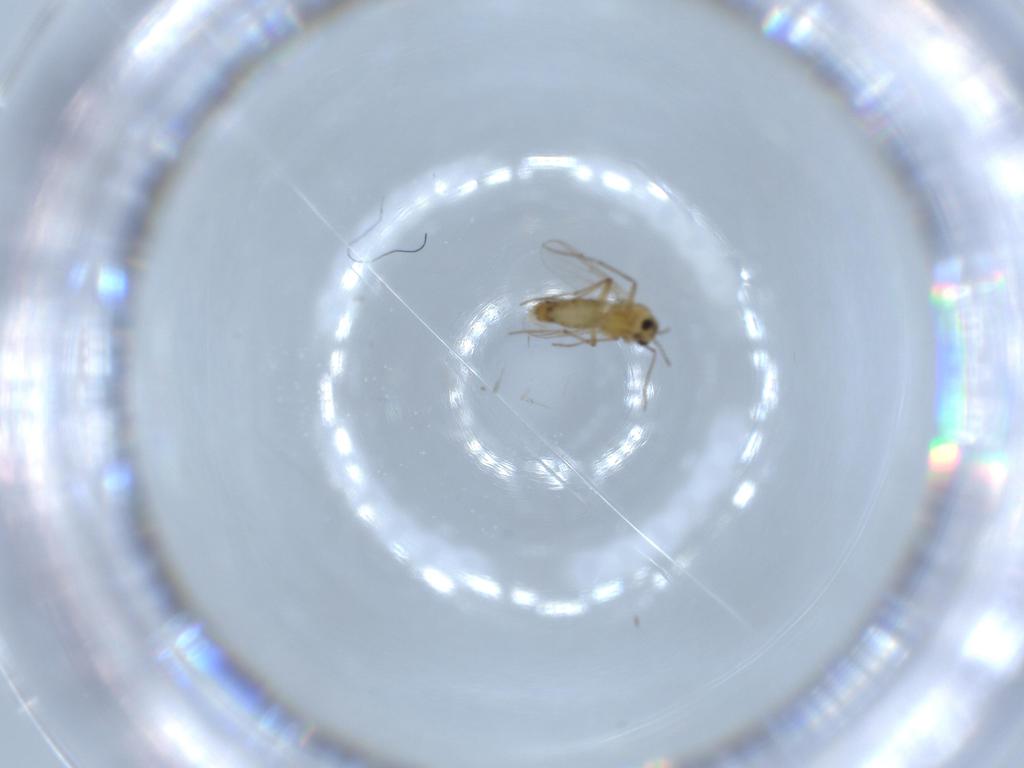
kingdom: Animalia
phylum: Arthropoda
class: Insecta
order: Diptera
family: Chironomidae
